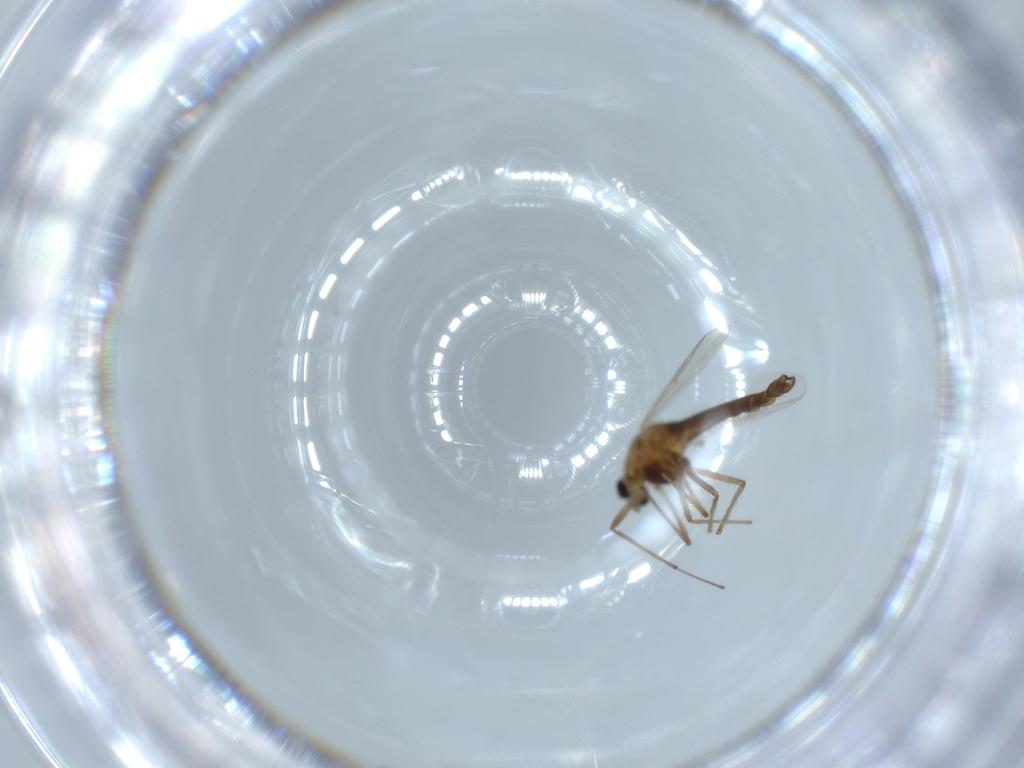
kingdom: Animalia
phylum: Arthropoda
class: Insecta
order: Diptera
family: Chironomidae
